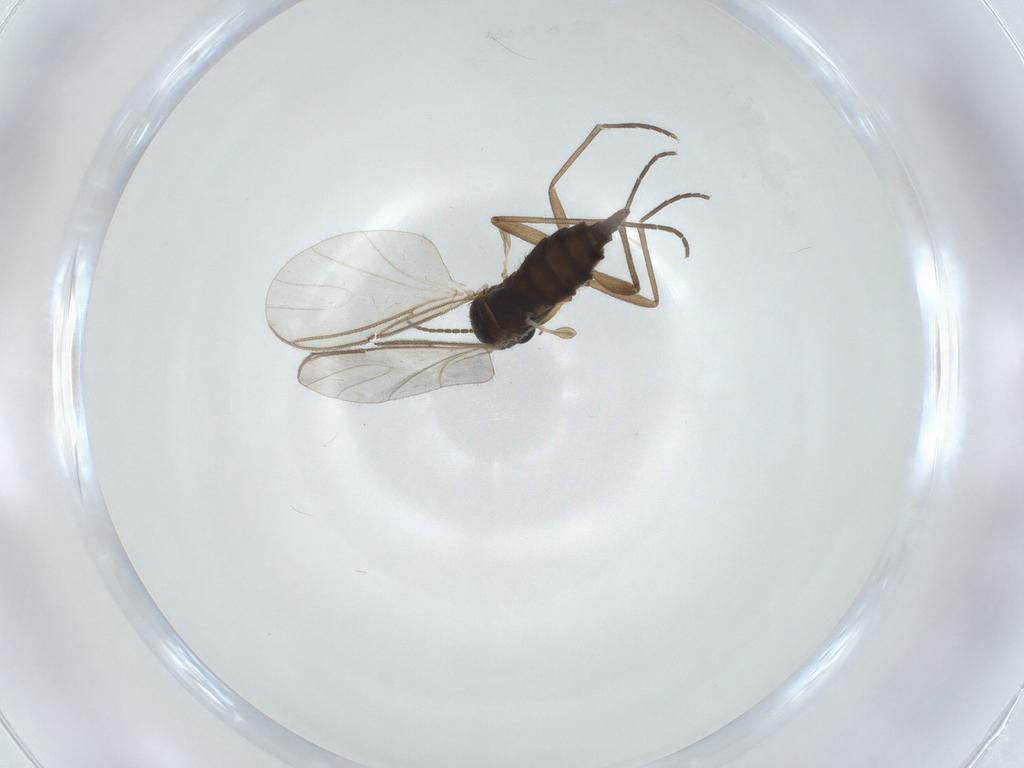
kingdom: Animalia
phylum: Arthropoda
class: Insecta
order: Diptera
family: Sciaridae
